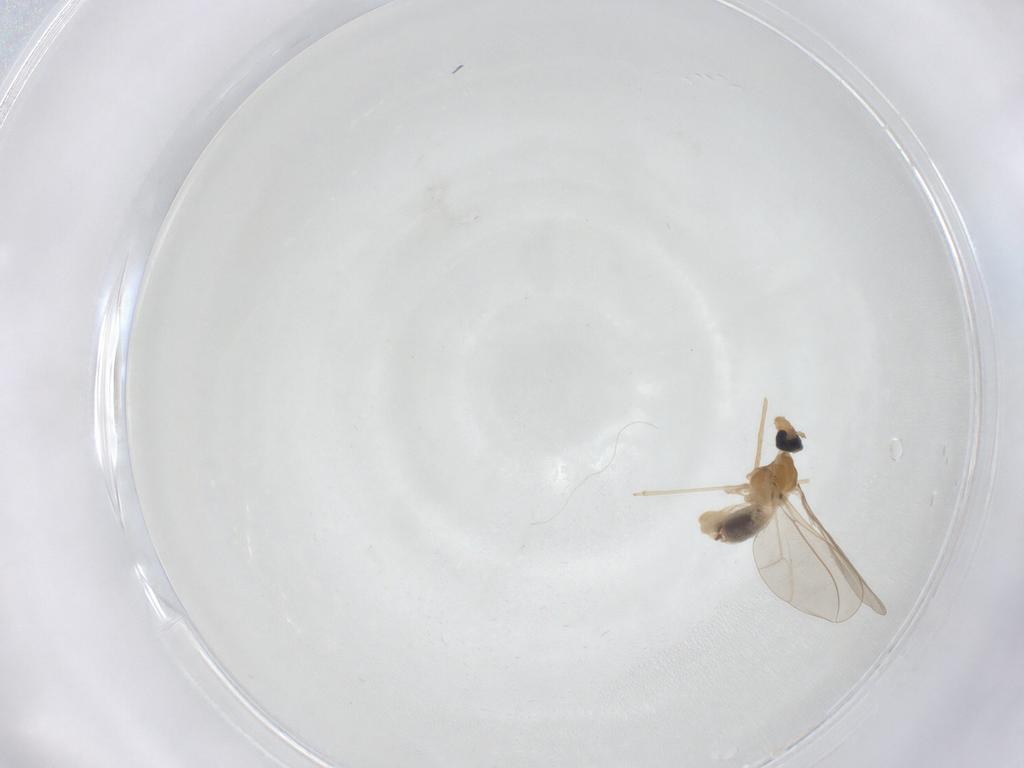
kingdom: Animalia
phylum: Arthropoda
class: Insecta
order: Diptera
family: Cecidomyiidae
